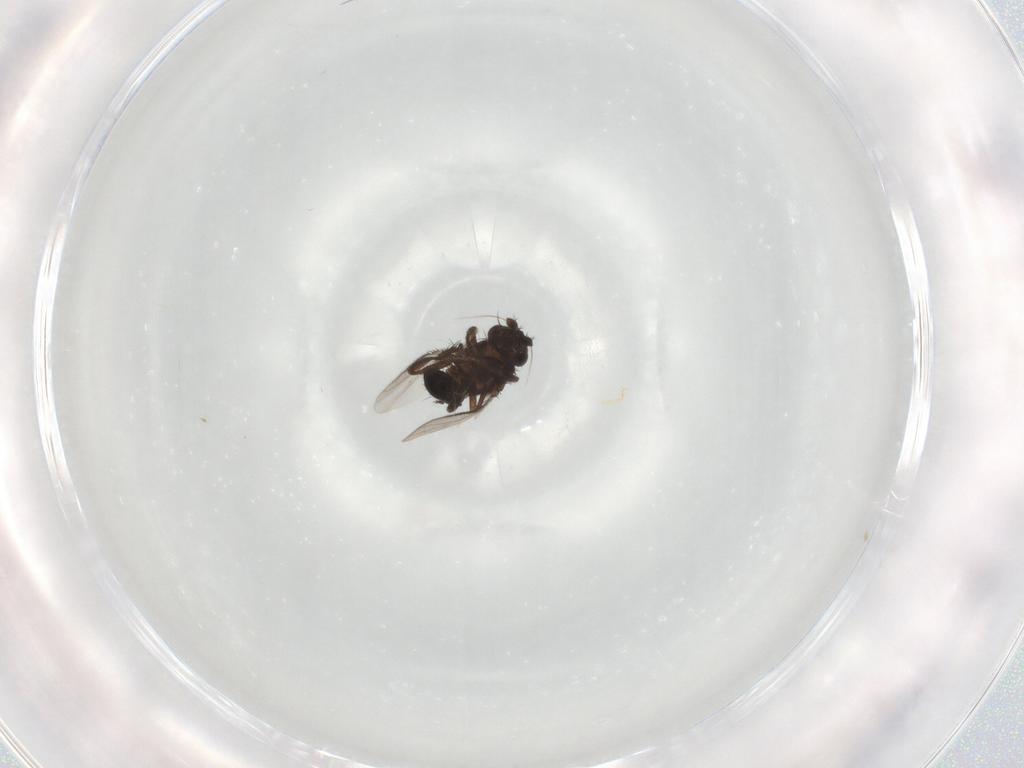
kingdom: Animalia
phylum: Arthropoda
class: Insecta
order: Diptera
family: Sphaeroceridae
